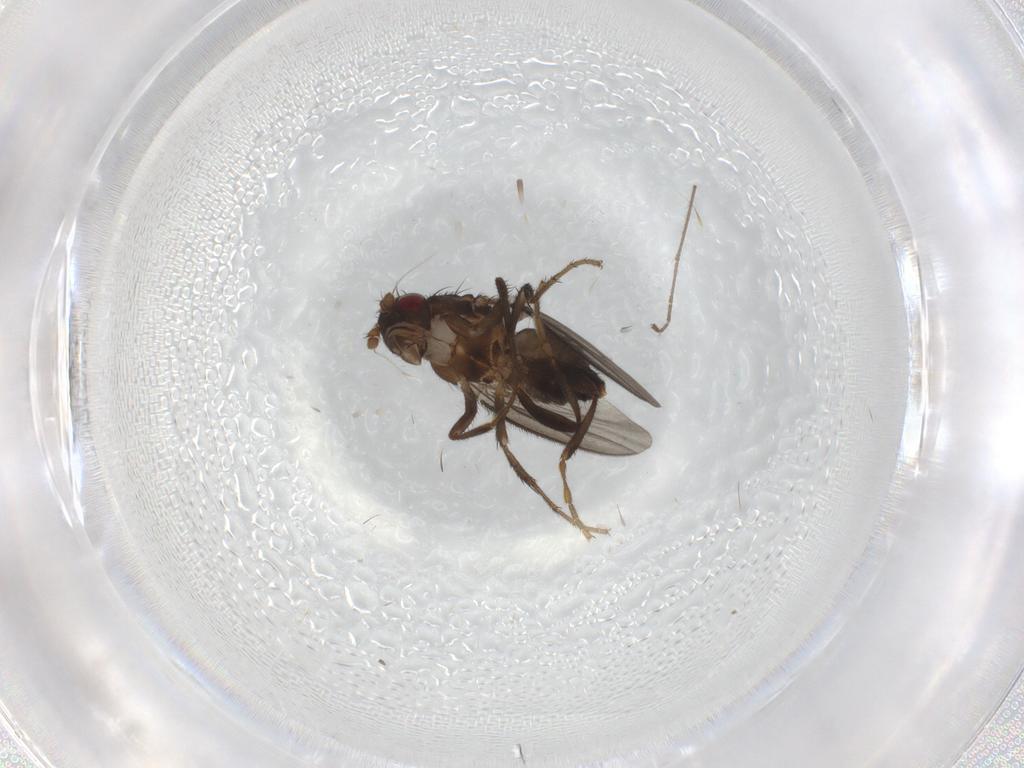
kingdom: Animalia
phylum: Arthropoda
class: Insecta
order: Diptera
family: Sphaeroceridae
